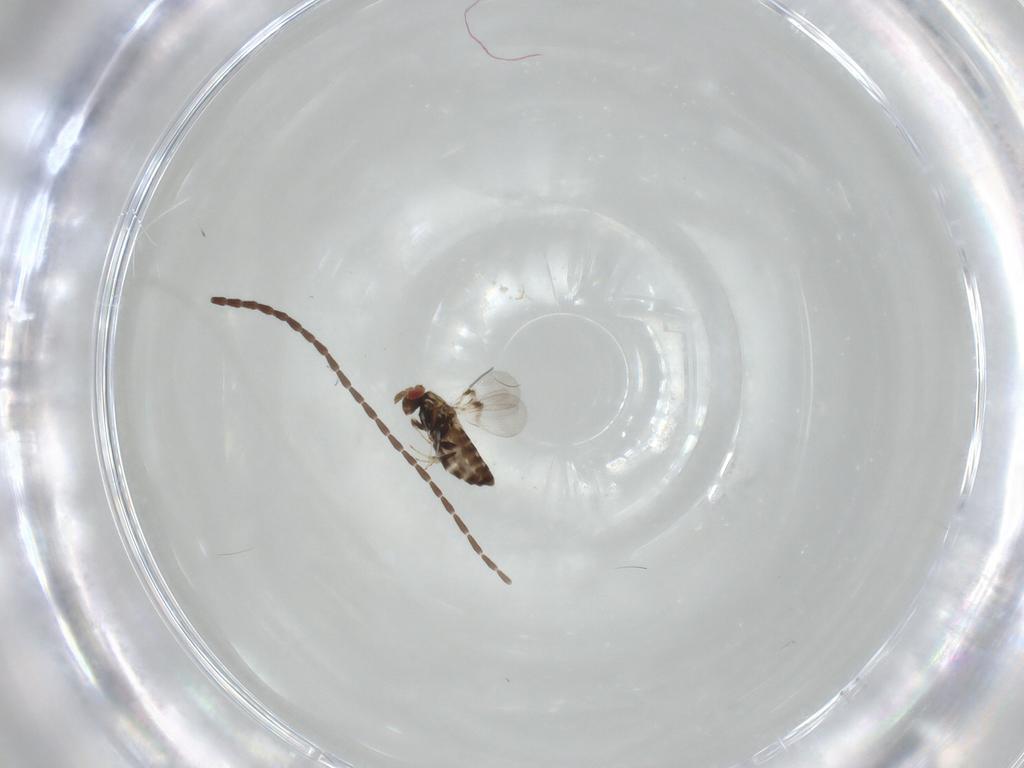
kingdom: Animalia
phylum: Arthropoda
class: Insecta
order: Hymenoptera
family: Trichogrammatidae
